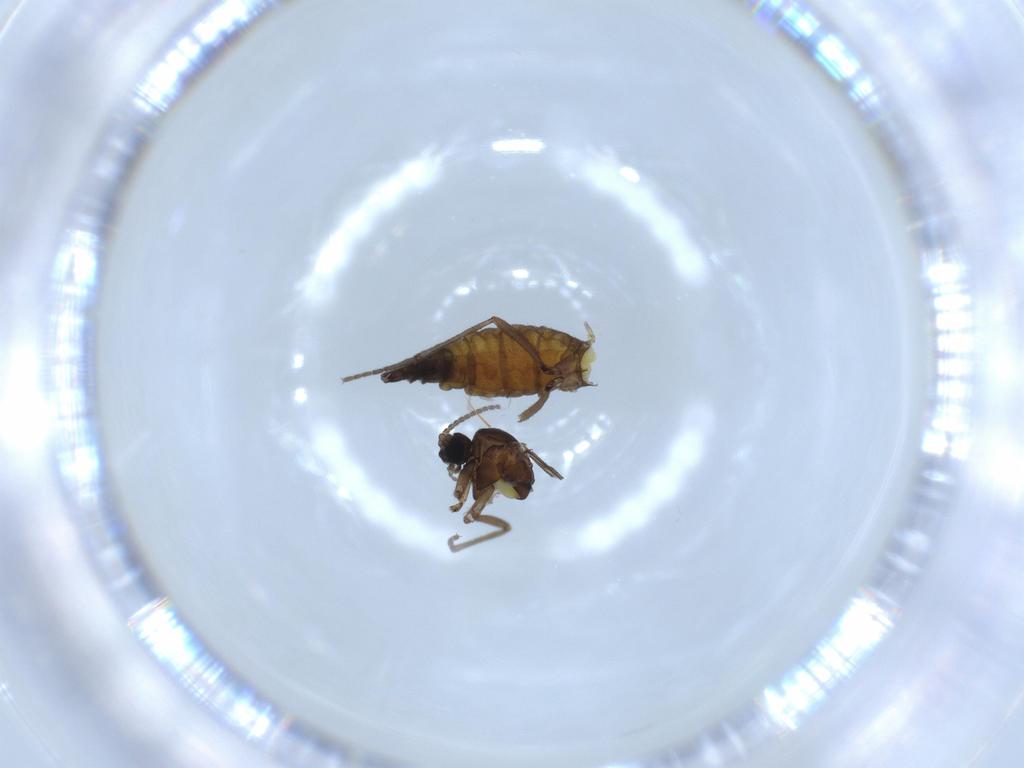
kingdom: Animalia
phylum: Arthropoda
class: Insecta
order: Diptera
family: Sciaridae
